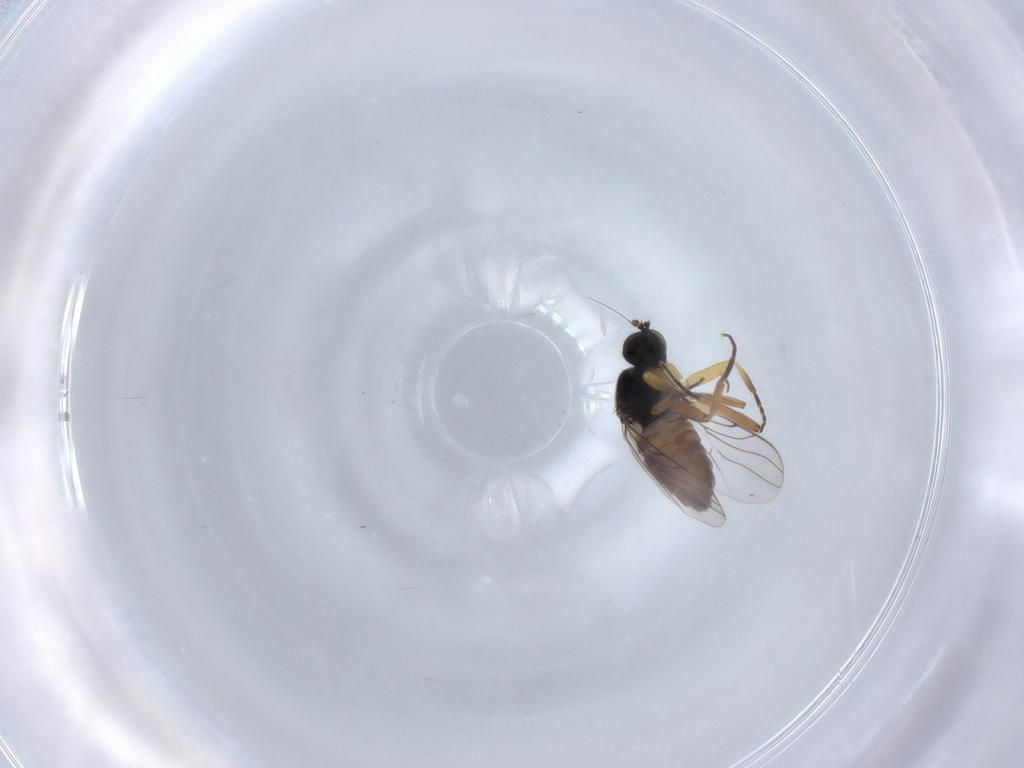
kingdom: Animalia
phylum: Arthropoda
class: Insecta
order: Diptera
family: Hybotidae
